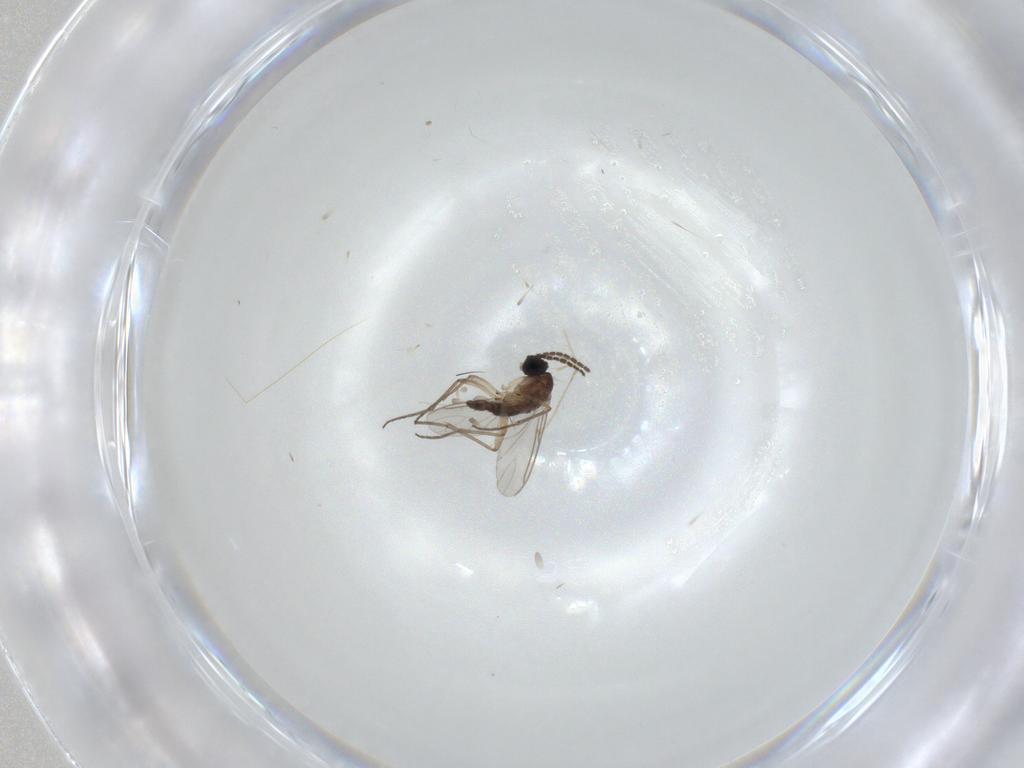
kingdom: Animalia
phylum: Arthropoda
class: Insecta
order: Diptera
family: Sciaridae
